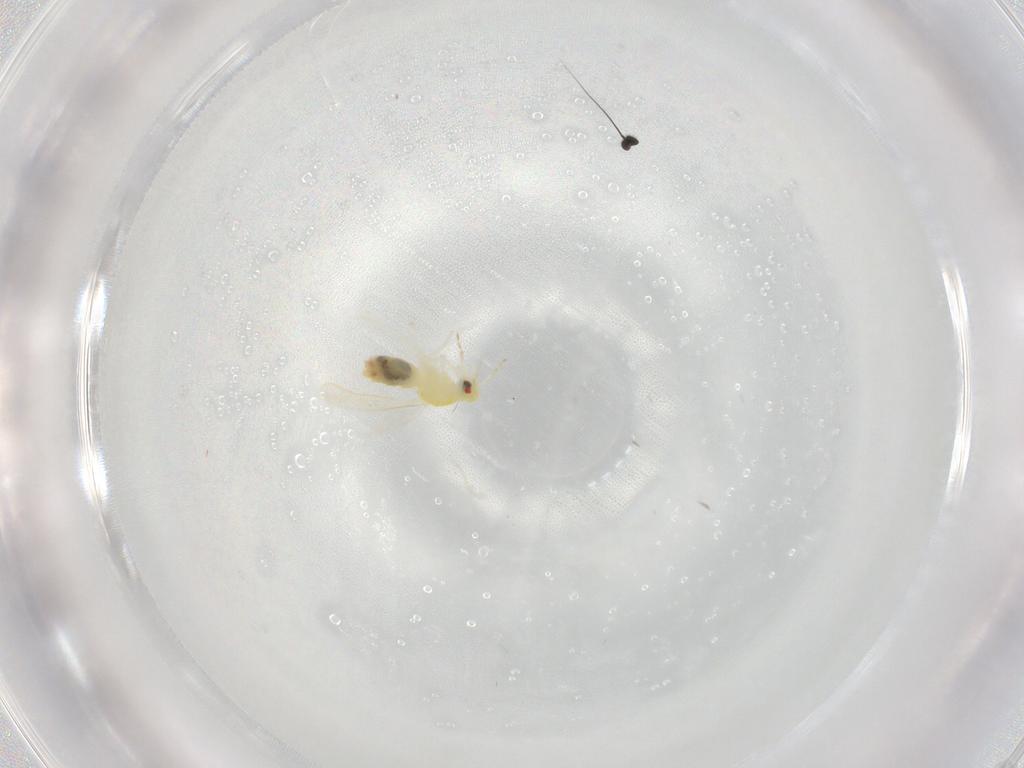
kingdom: Animalia
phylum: Arthropoda
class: Insecta
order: Hemiptera
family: Aleyrodidae
